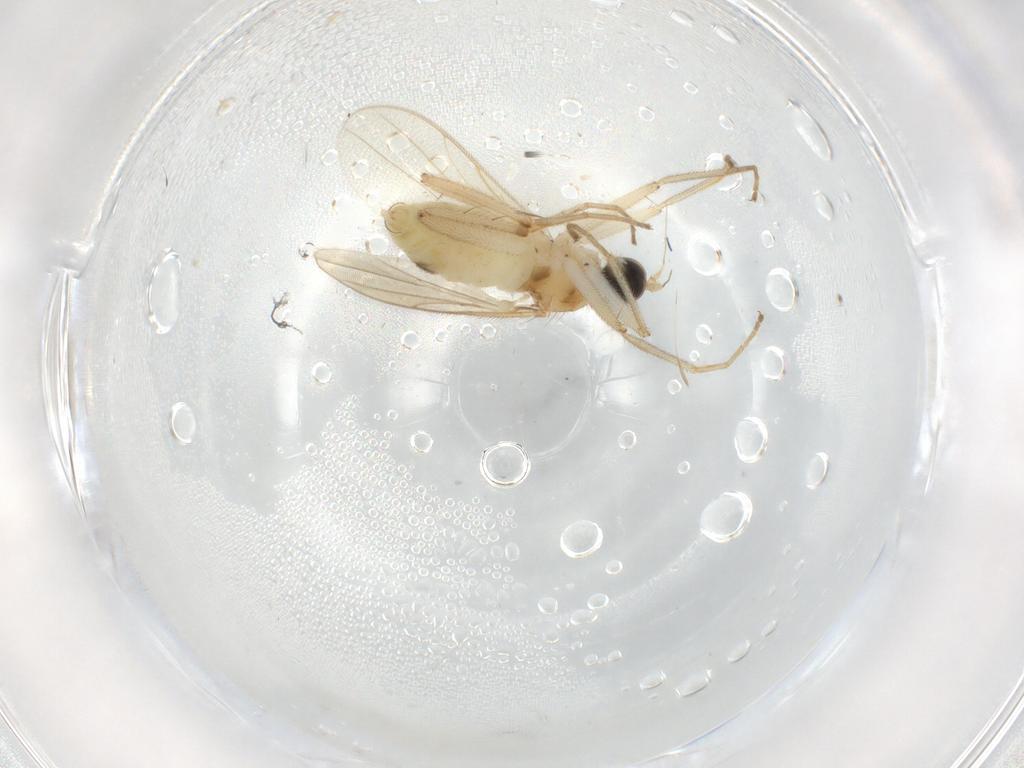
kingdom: Animalia
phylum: Arthropoda
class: Insecta
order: Diptera
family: Hybotidae
